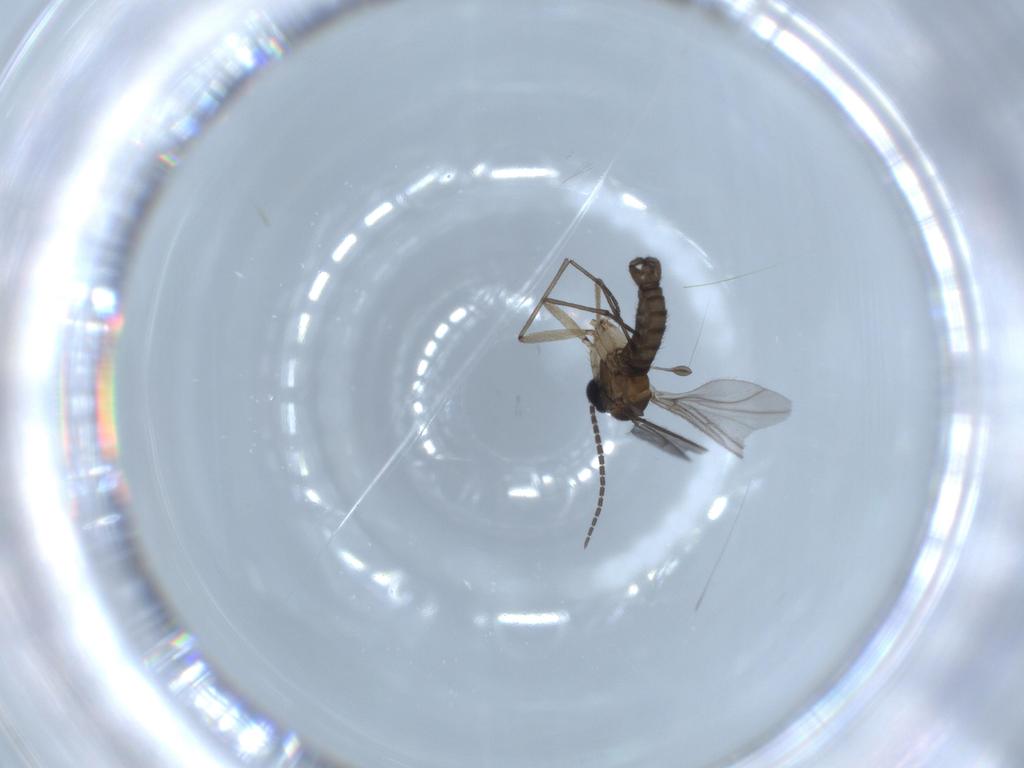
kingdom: Animalia
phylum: Arthropoda
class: Insecta
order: Diptera
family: Sciaridae
